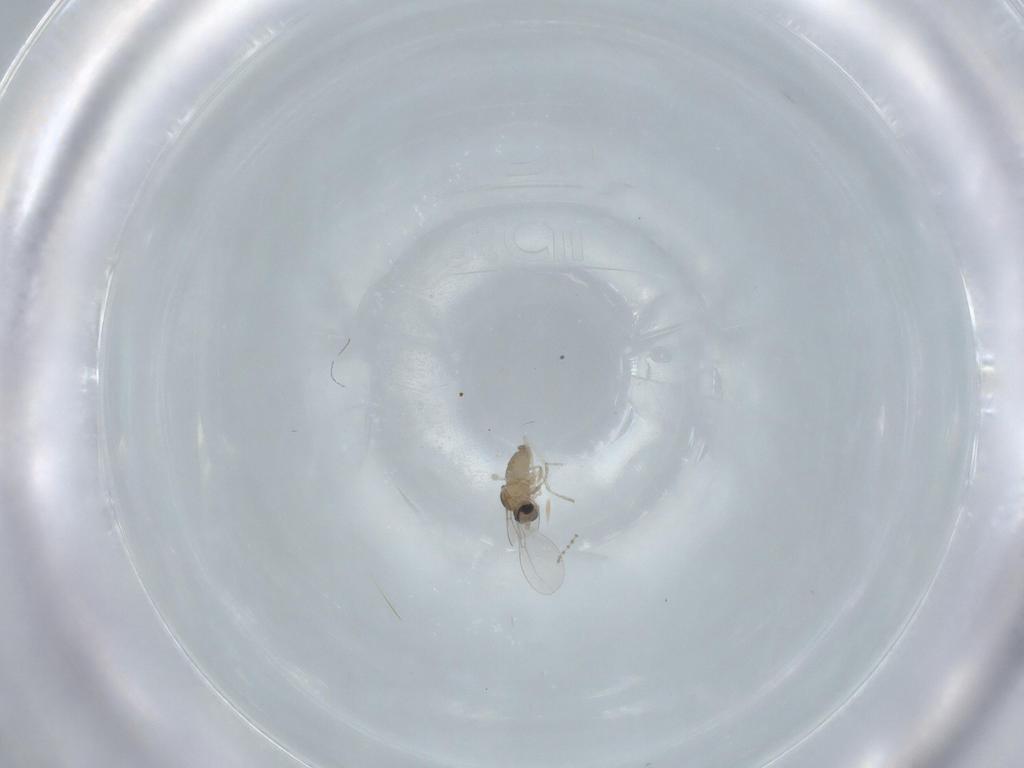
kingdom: Animalia
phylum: Arthropoda
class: Insecta
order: Diptera
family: Cecidomyiidae
